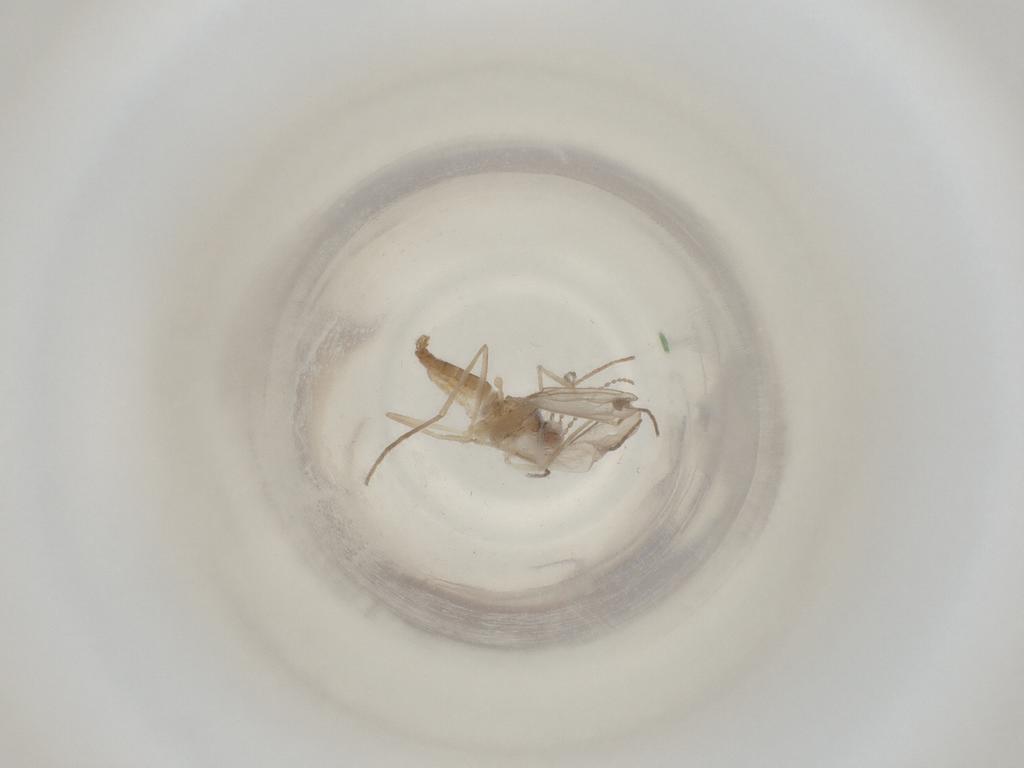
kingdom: Animalia
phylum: Arthropoda
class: Insecta
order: Diptera
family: Cecidomyiidae
